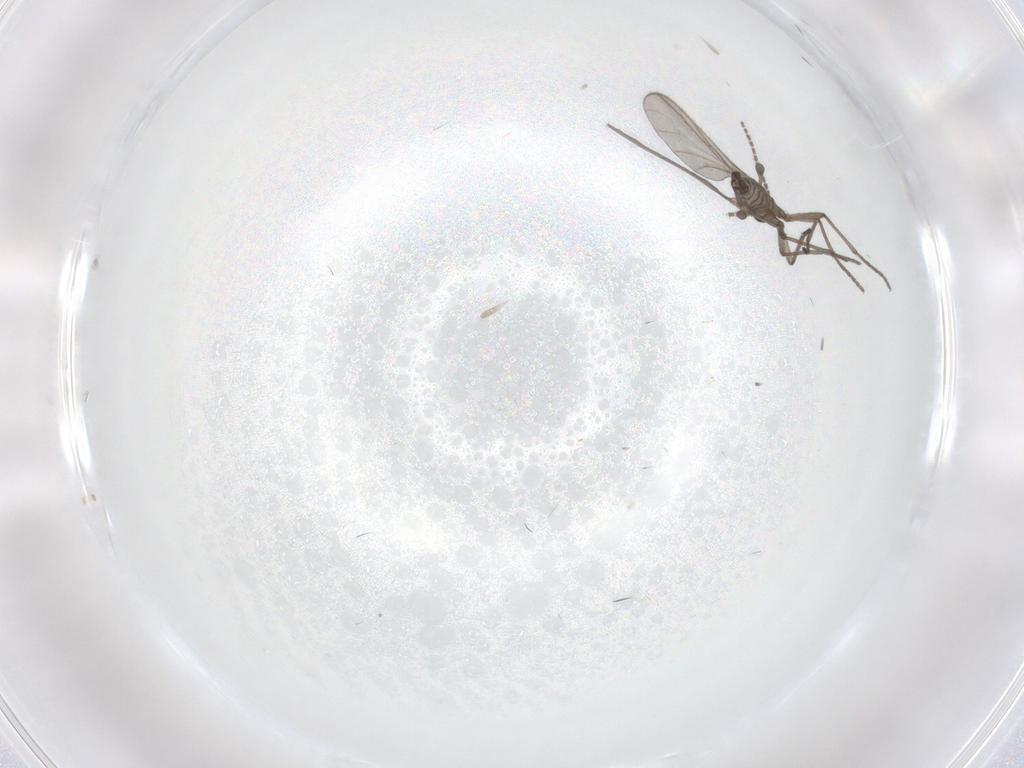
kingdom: Animalia
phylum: Arthropoda
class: Insecta
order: Diptera
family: Sciaridae
